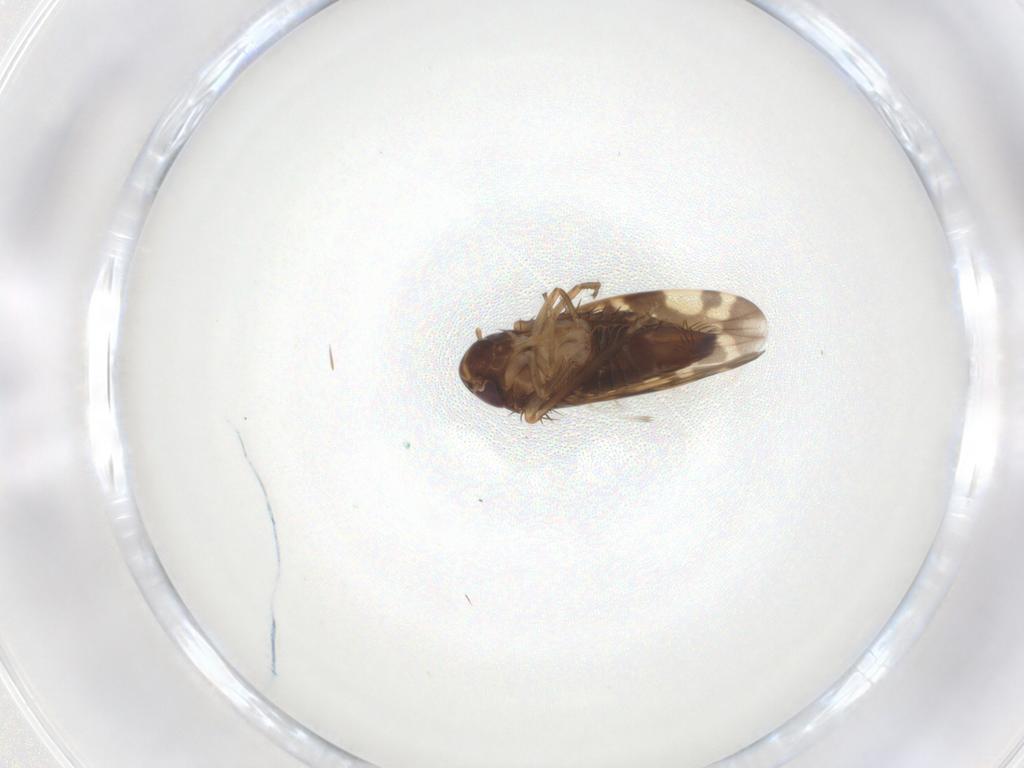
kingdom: Animalia
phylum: Arthropoda
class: Insecta
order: Hemiptera
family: Cicadellidae
